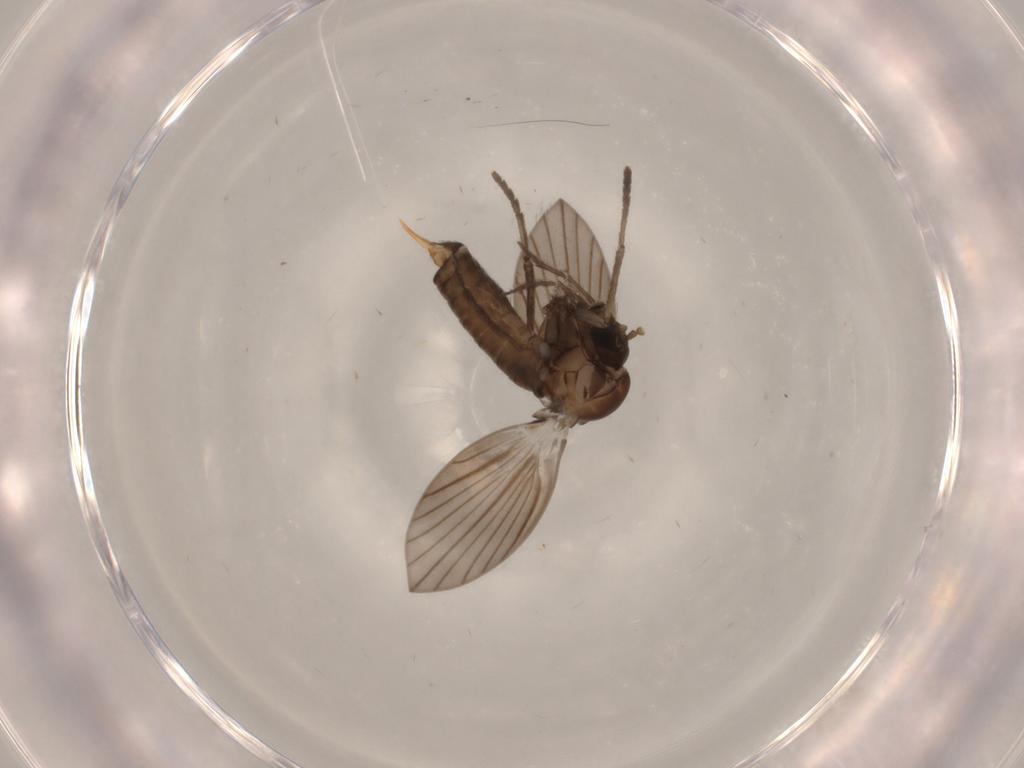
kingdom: Animalia
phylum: Arthropoda
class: Insecta
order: Diptera
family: Psychodidae
